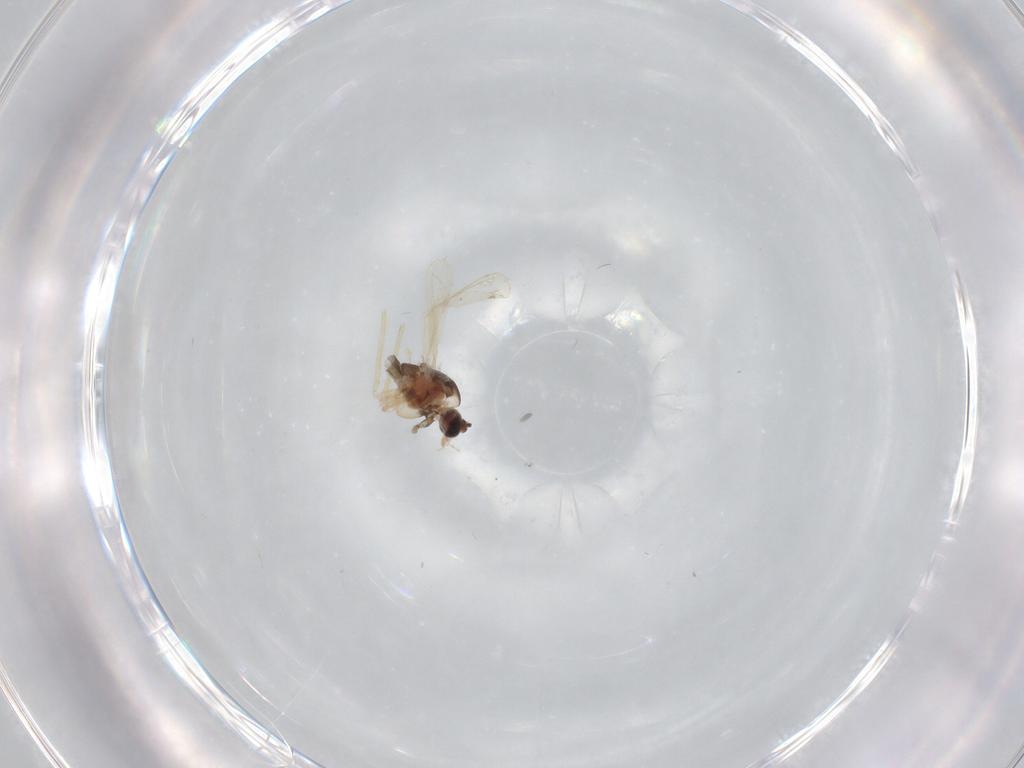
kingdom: Animalia
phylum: Arthropoda
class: Insecta
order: Diptera
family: Chironomidae
